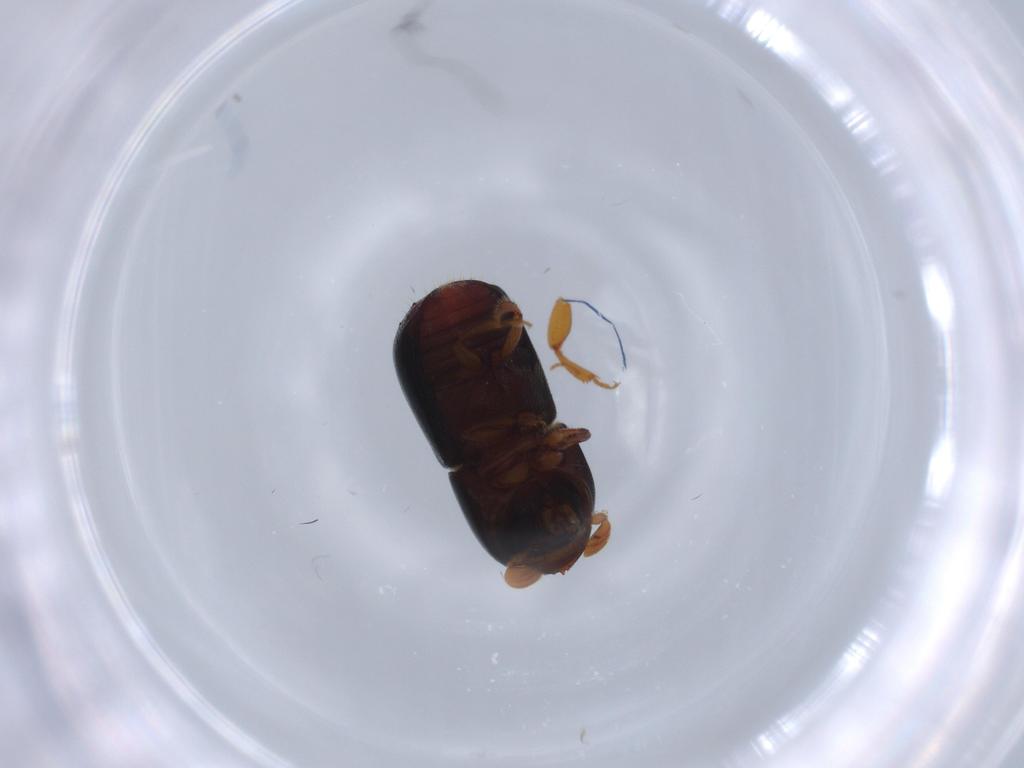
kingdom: Animalia
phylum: Arthropoda
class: Insecta
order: Coleoptera
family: Curculionidae
